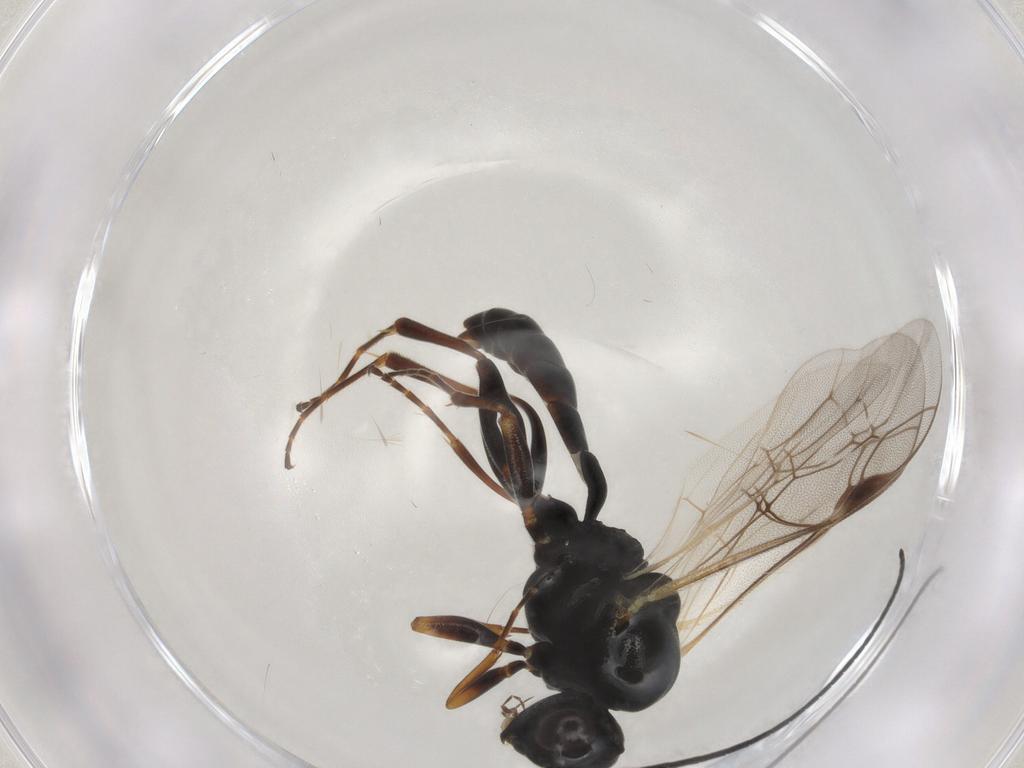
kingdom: Animalia
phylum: Arthropoda
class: Insecta
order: Hymenoptera
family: Ichneumonidae
